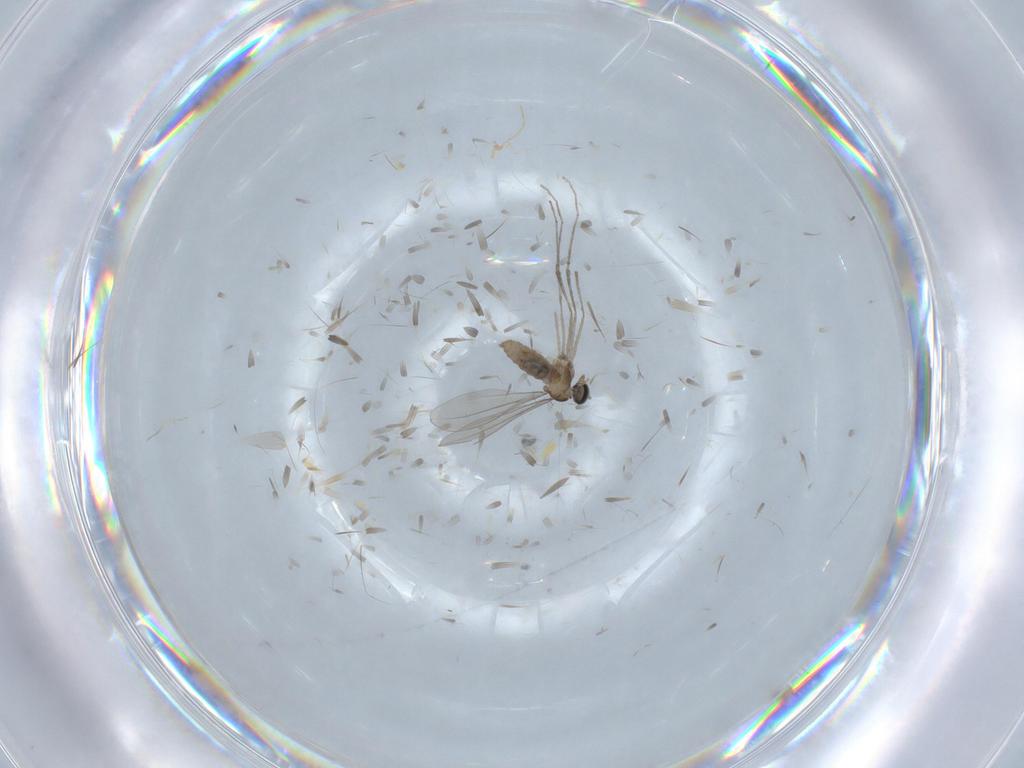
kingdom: Animalia
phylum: Arthropoda
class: Insecta
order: Diptera
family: Cecidomyiidae
